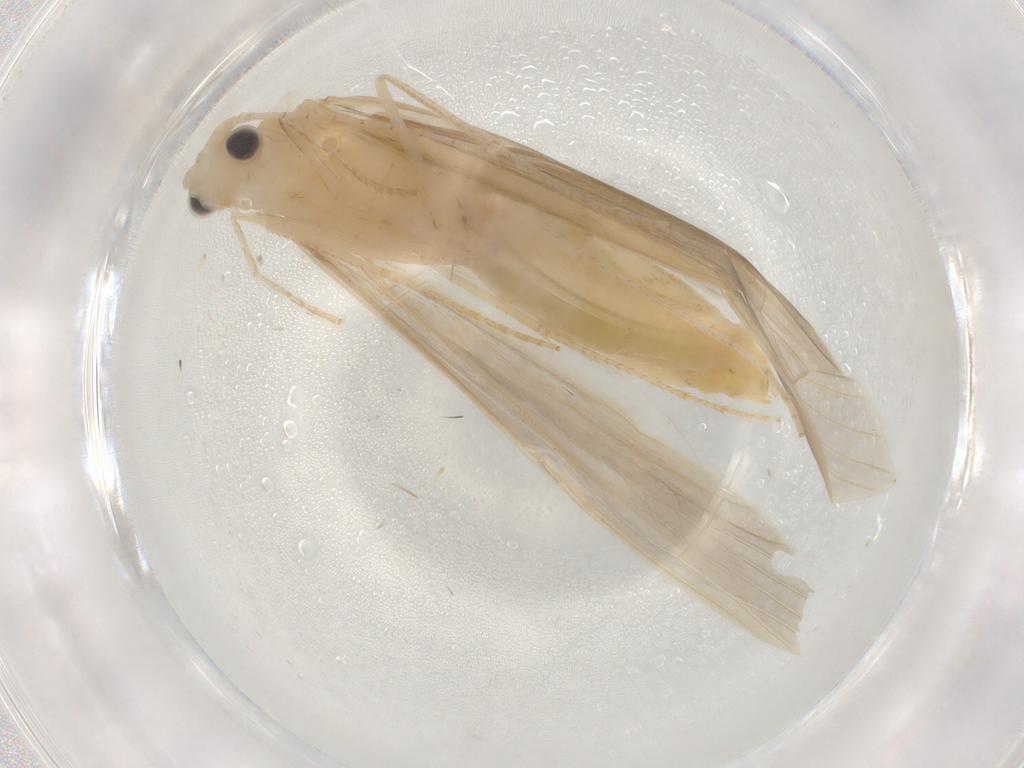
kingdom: Animalia
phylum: Arthropoda
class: Insecta
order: Trichoptera
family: Leptoceridae
